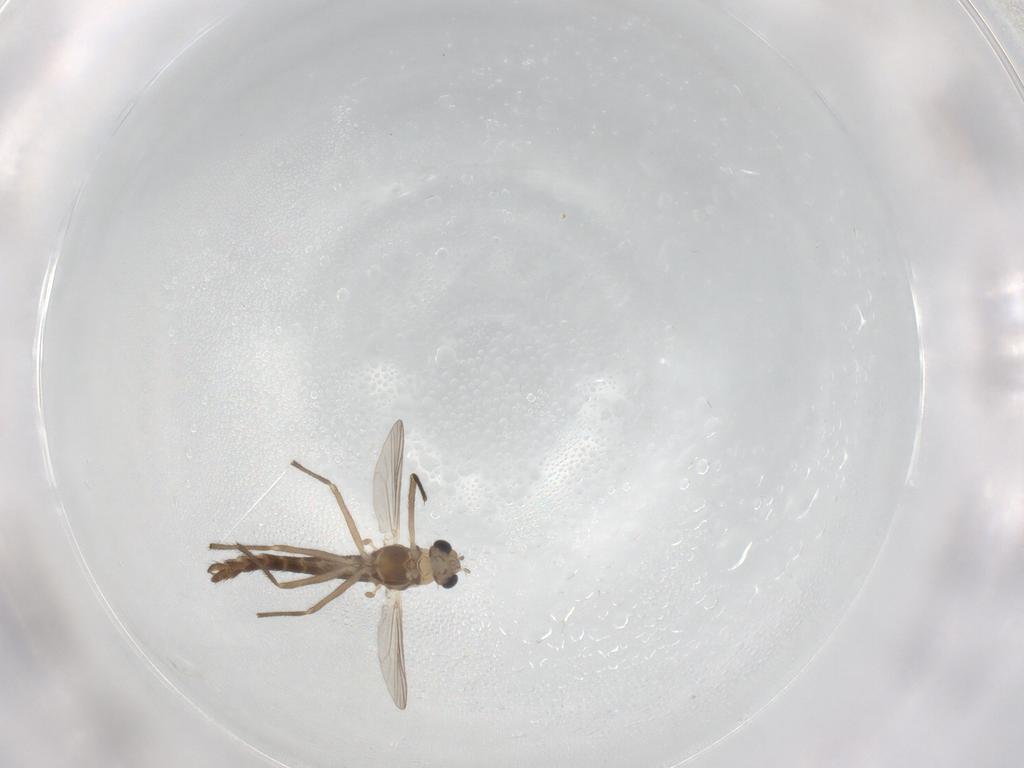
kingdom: Animalia
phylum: Arthropoda
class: Insecta
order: Diptera
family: Chironomidae
